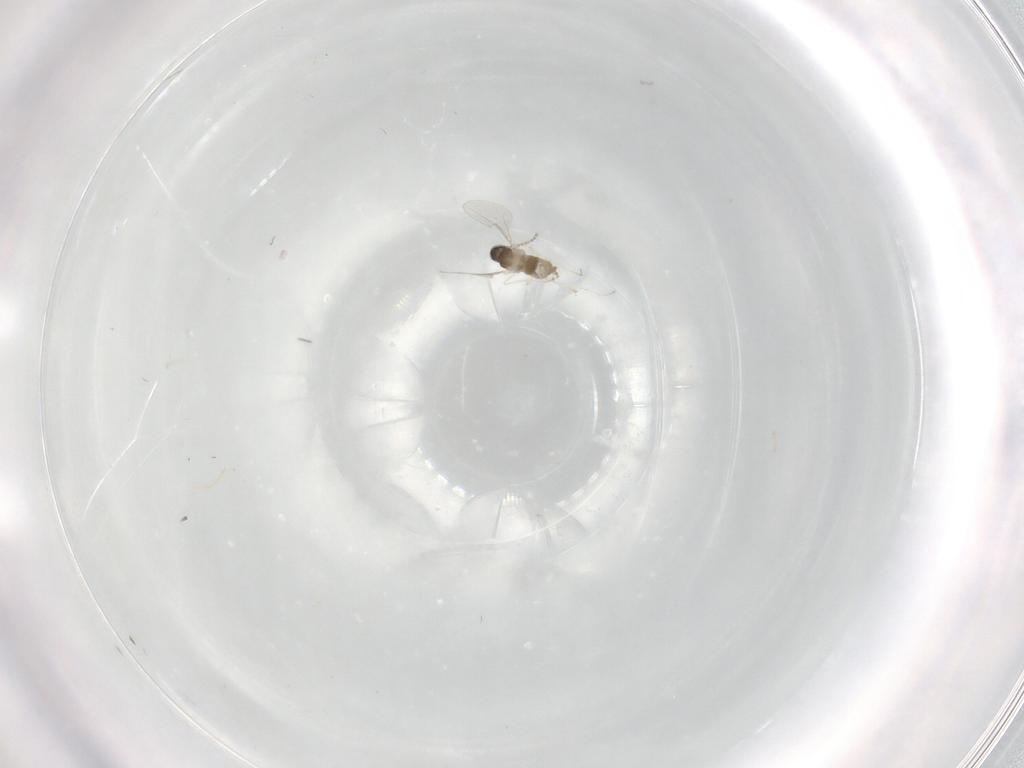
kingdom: Animalia
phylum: Arthropoda
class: Insecta
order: Diptera
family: Cecidomyiidae
